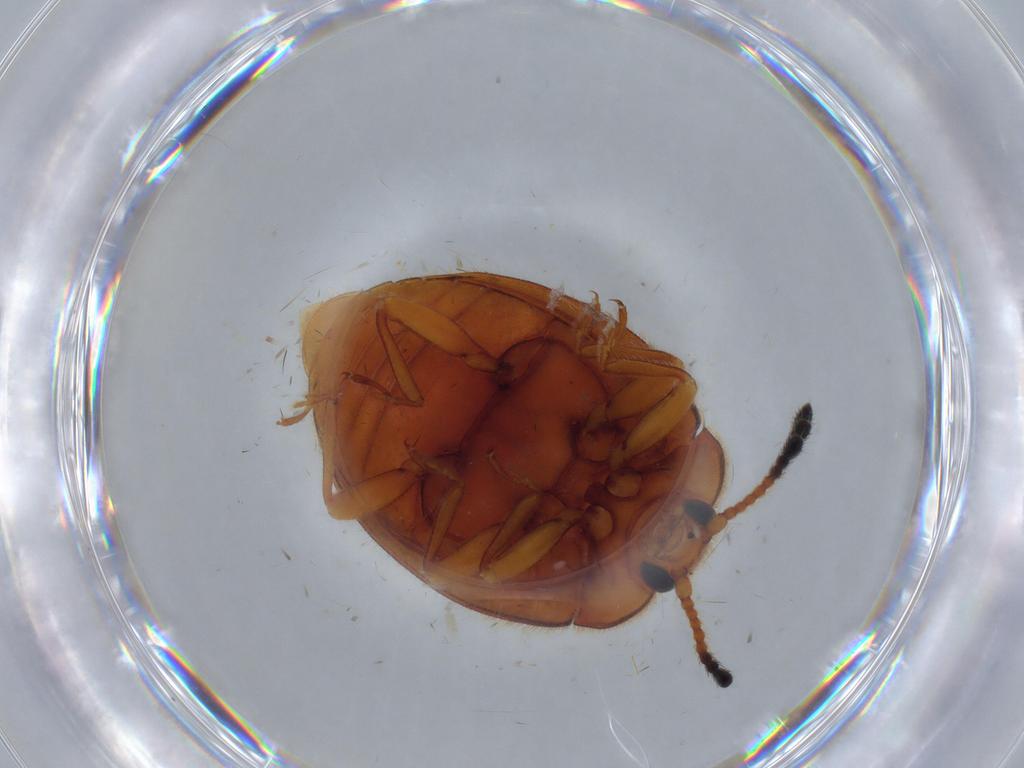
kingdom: Animalia
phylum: Arthropoda
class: Insecta
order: Coleoptera
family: Endomychidae
